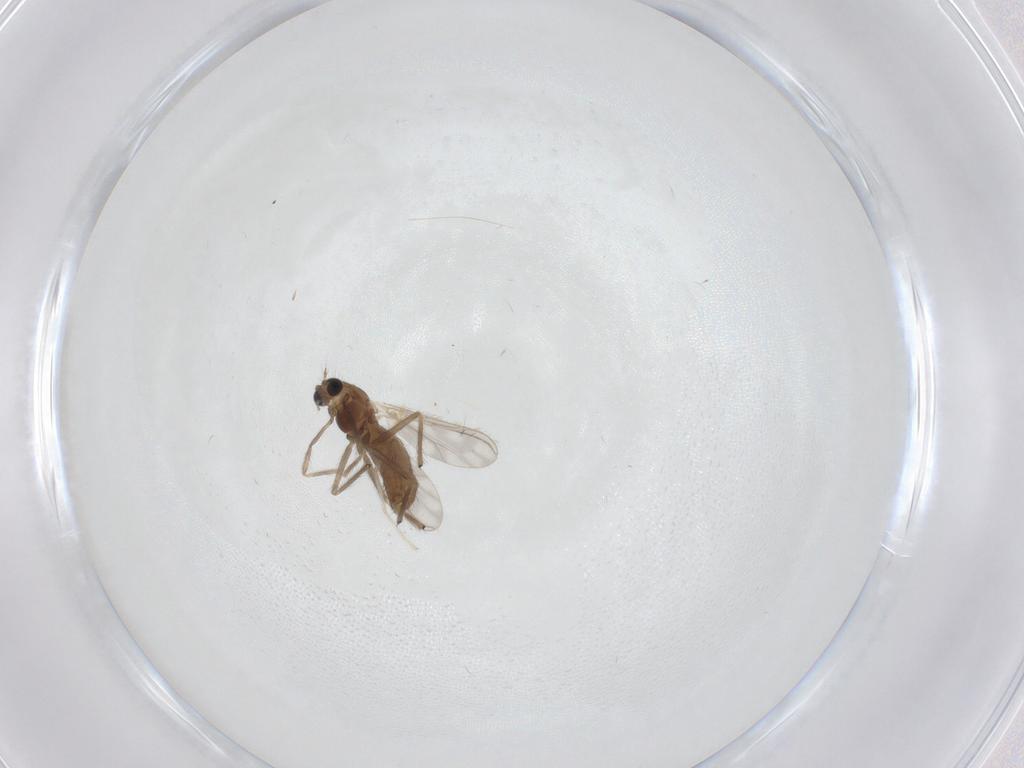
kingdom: Animalia
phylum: Arthropoda
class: Insecta
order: Diptera
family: Chironomidae
